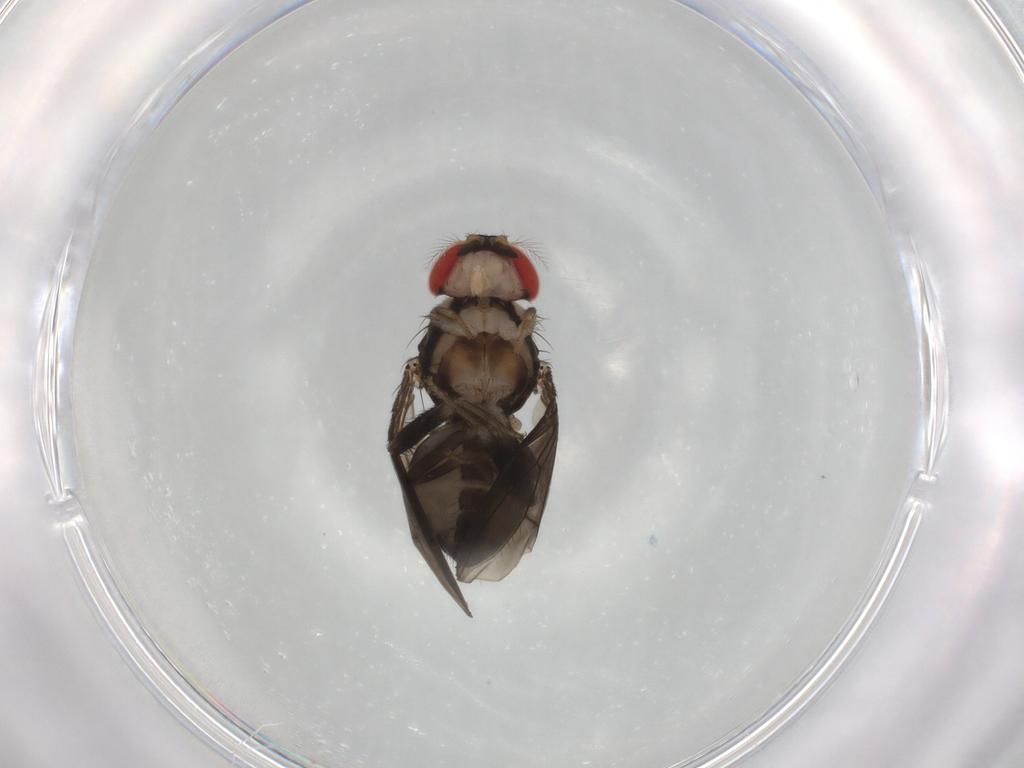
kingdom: Animalia
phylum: Arthropoda
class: Insecta
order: Diptera
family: Drosophilidae
